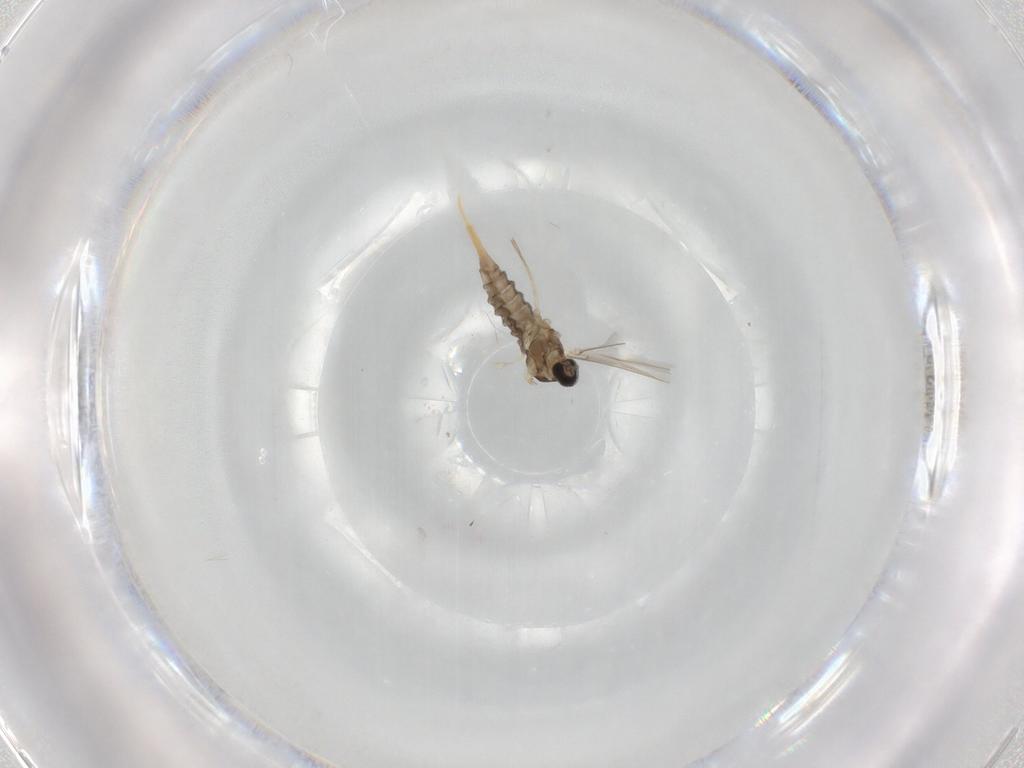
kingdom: Animalia
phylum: Arthropoda
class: Insecta
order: Diptera
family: Cecidomyiidae
